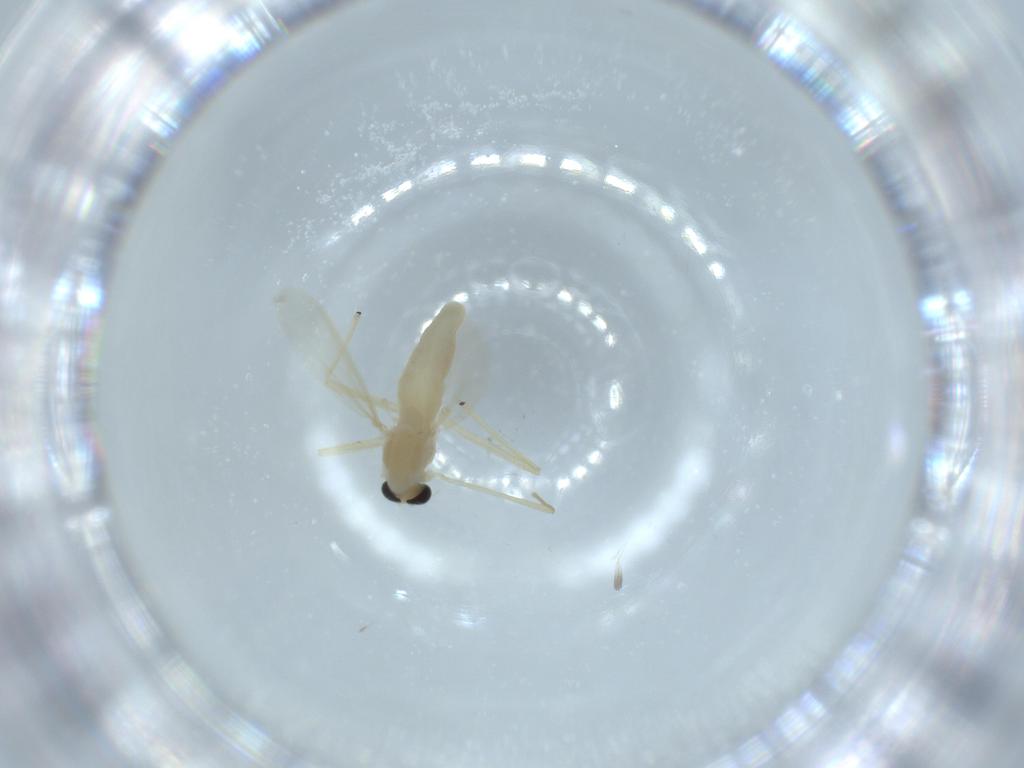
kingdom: Animalia
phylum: Arthropoda
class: Insecta
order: Diptera
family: Chironomidae
